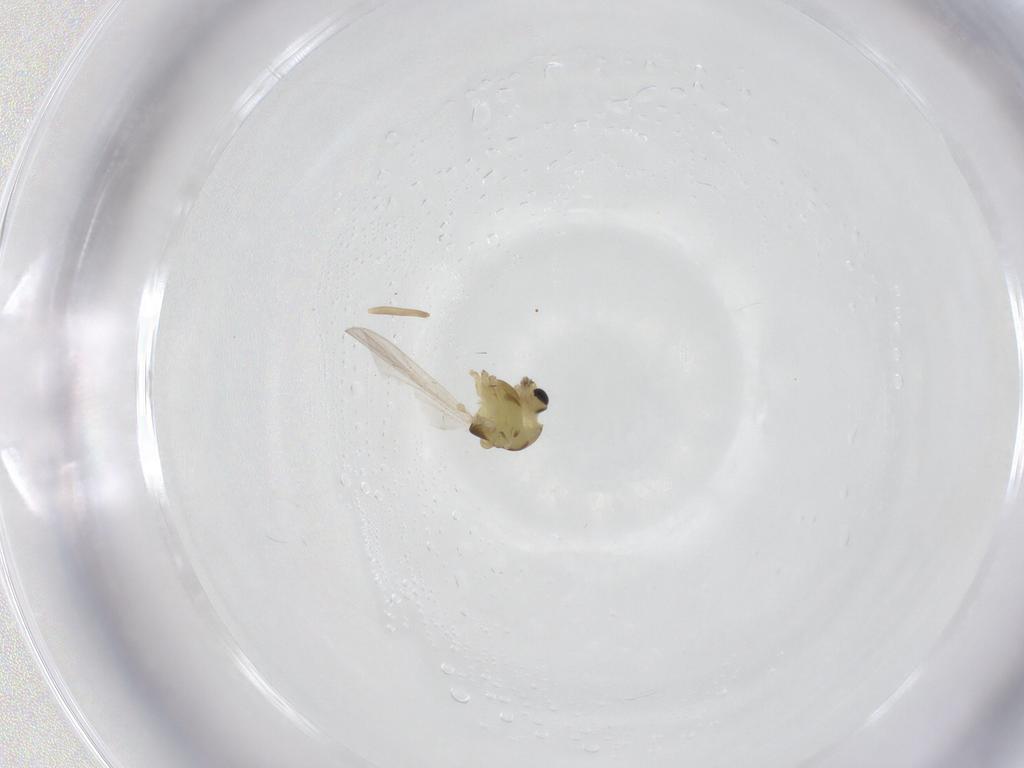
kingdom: Animalia
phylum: Arthropoda
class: Insecta
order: Diptera
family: Chironomidae
